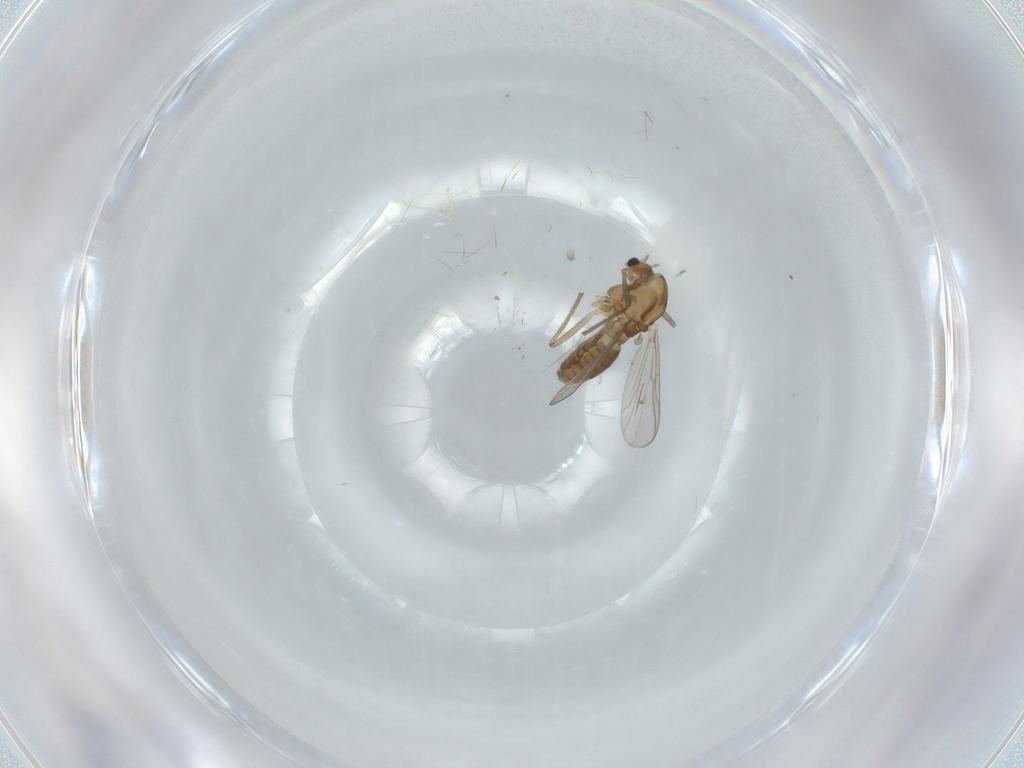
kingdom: Animalia
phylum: Arthropoda
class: Insecta
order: Diptera
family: Chironomidae
